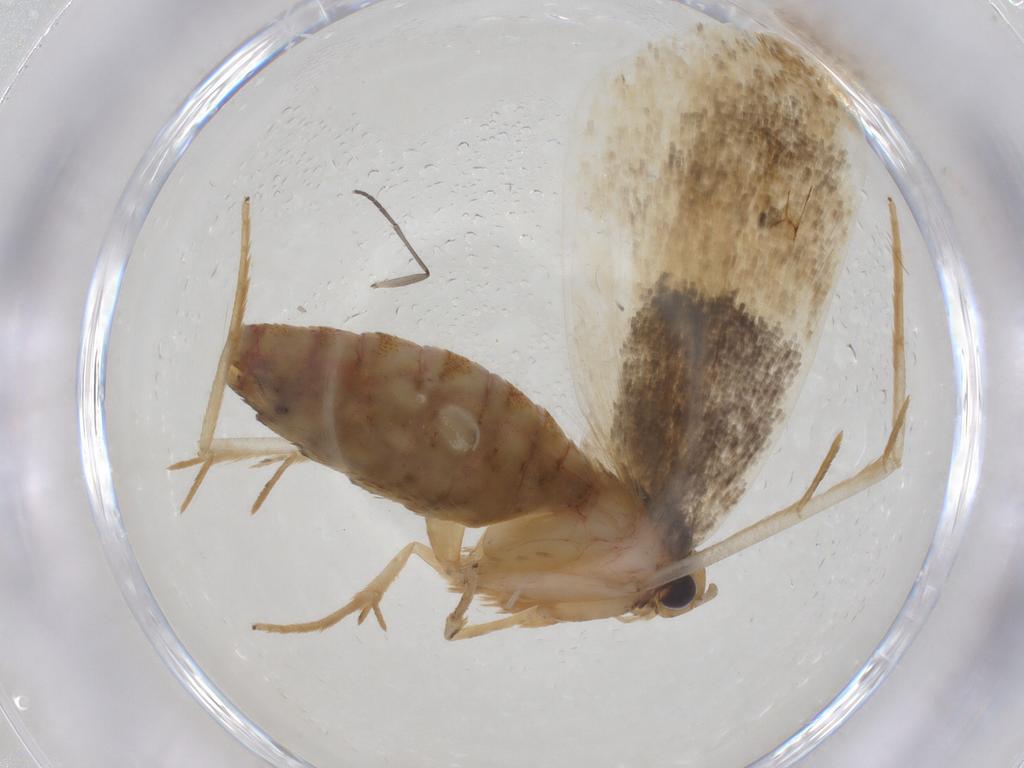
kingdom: Animalia
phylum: Arthropoda
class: Insecta
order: Lepidoptera
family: Lecithoceridae
